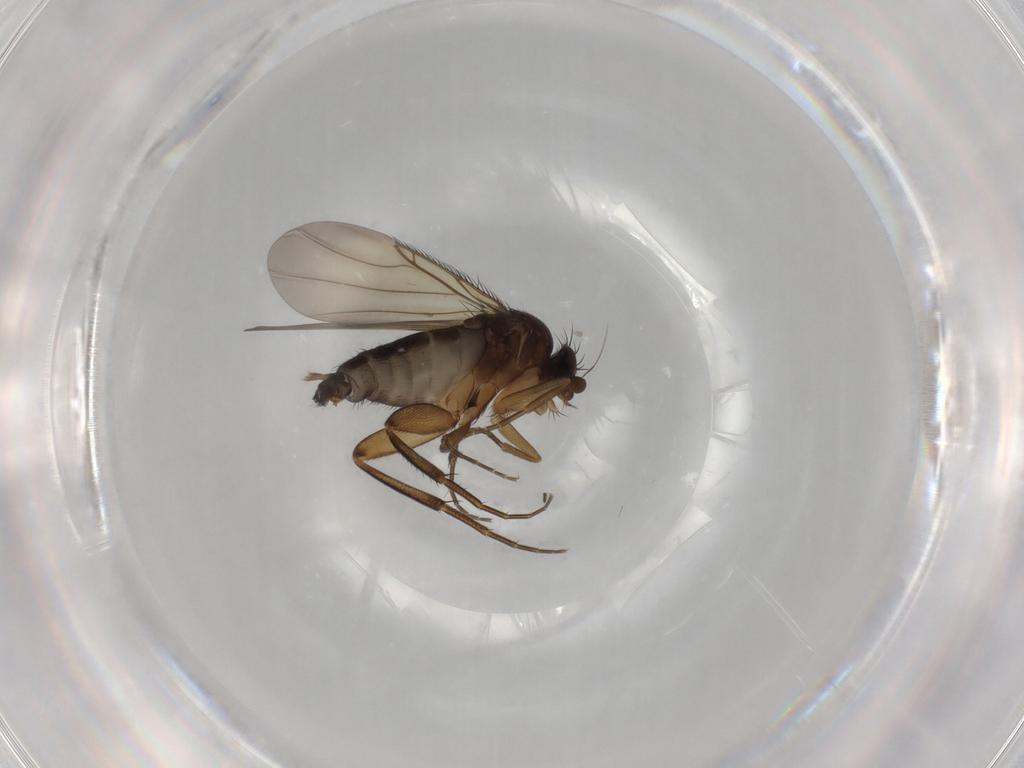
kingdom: Animalia
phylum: Arthropoda
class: Insecta
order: Diptera
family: Phoridae
